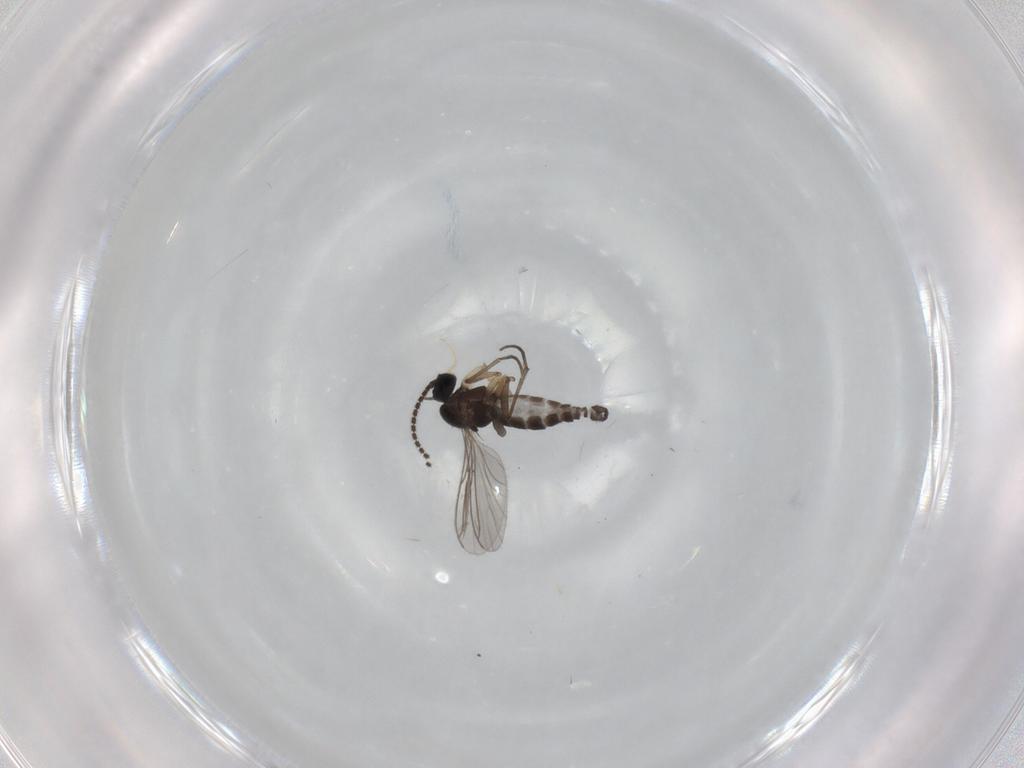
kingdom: Animalia
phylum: Arthropoda
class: Insecta
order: Diptera
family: Sciaridae
